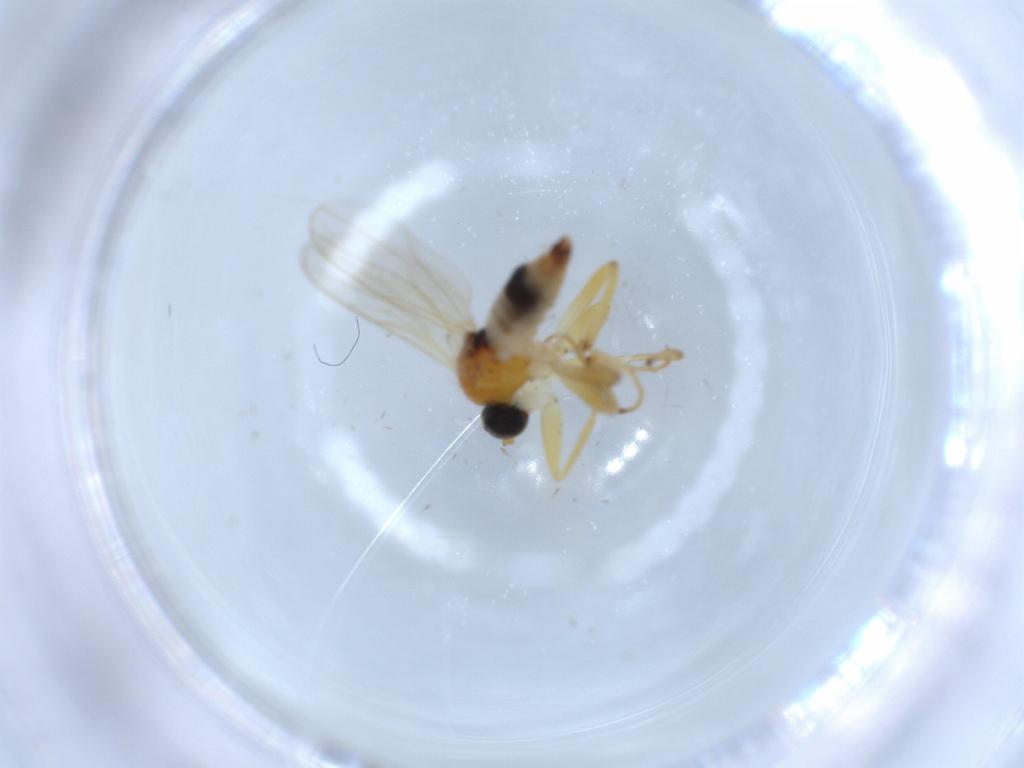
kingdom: Animalia
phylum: Arthropoda
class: Insecta
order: Diptera
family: Hybotidae
